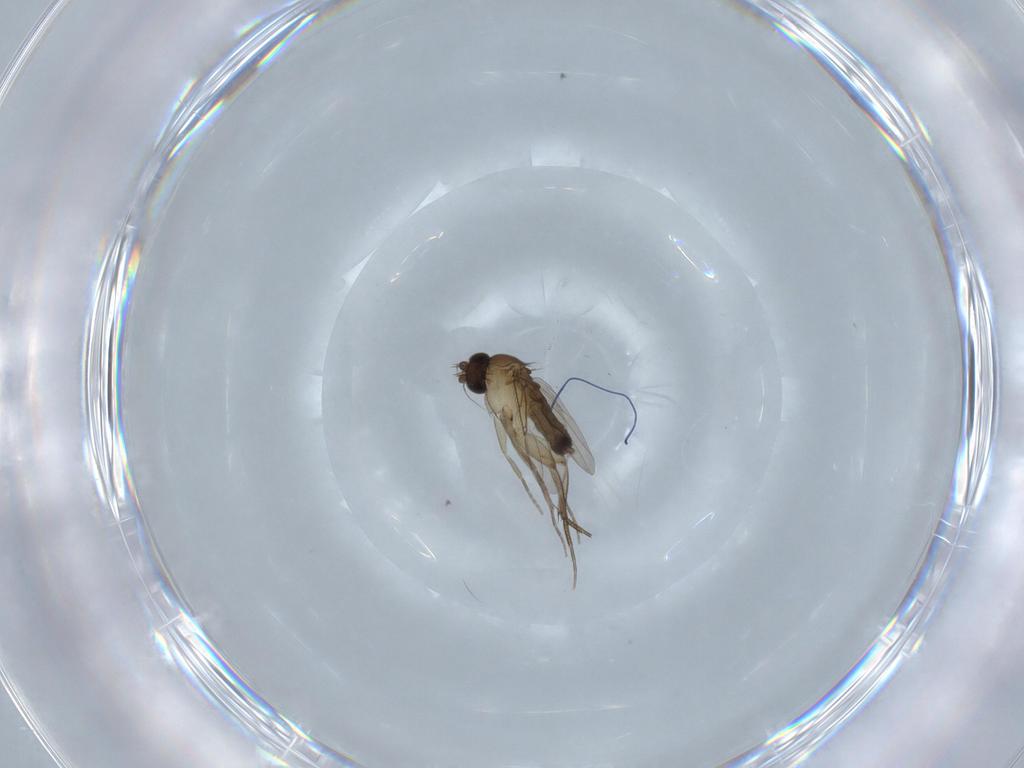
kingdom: Animalia
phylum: Arthropoda
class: Insecta
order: Diptera
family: Phoridae
